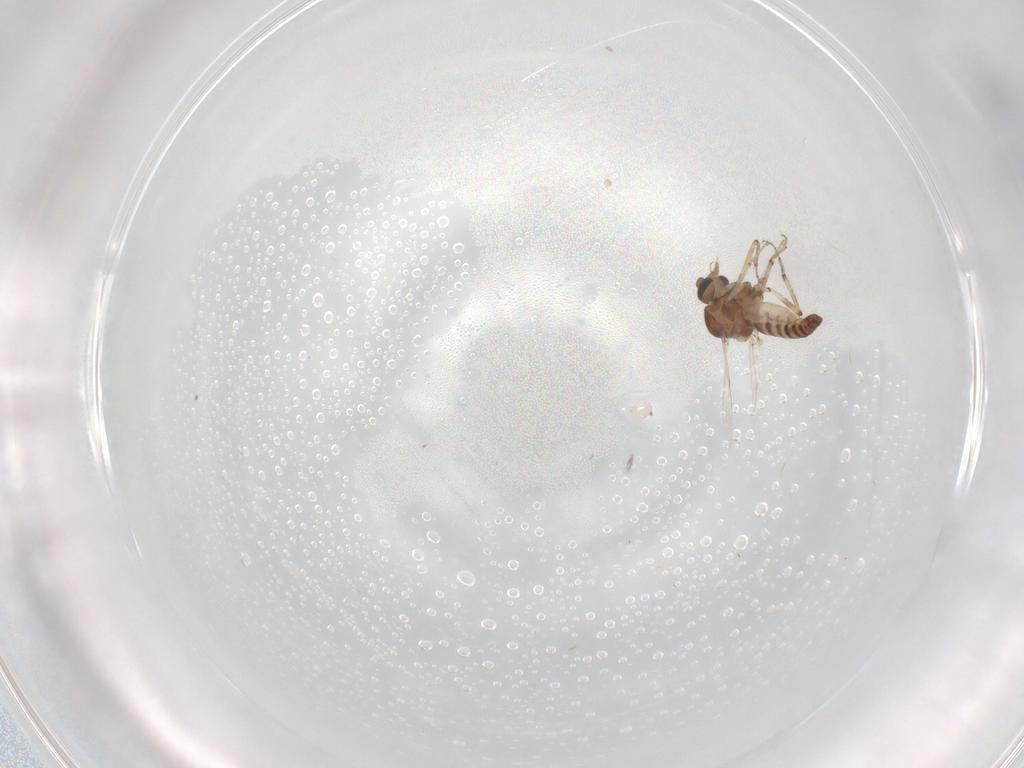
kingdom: Animalia
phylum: Arthropoda
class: Insecta
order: Diptera
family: Ceratopogonidae
